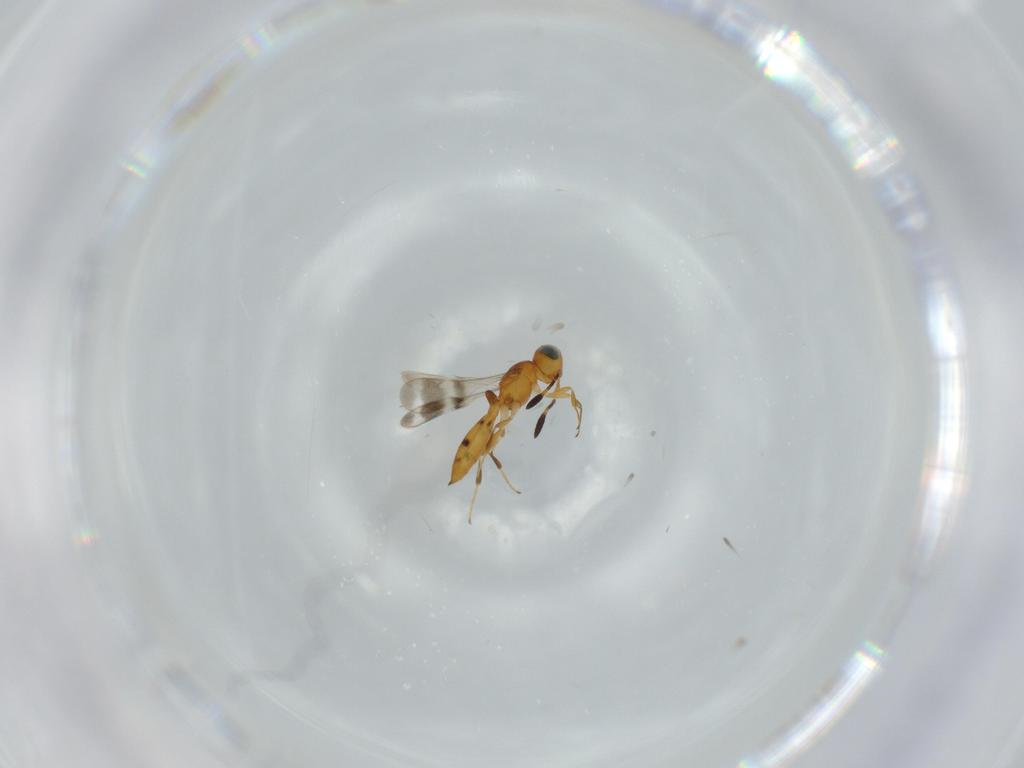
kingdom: Animalia
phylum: Arthropoda
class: Insecta
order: Hymenoptera
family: Scelionidae
